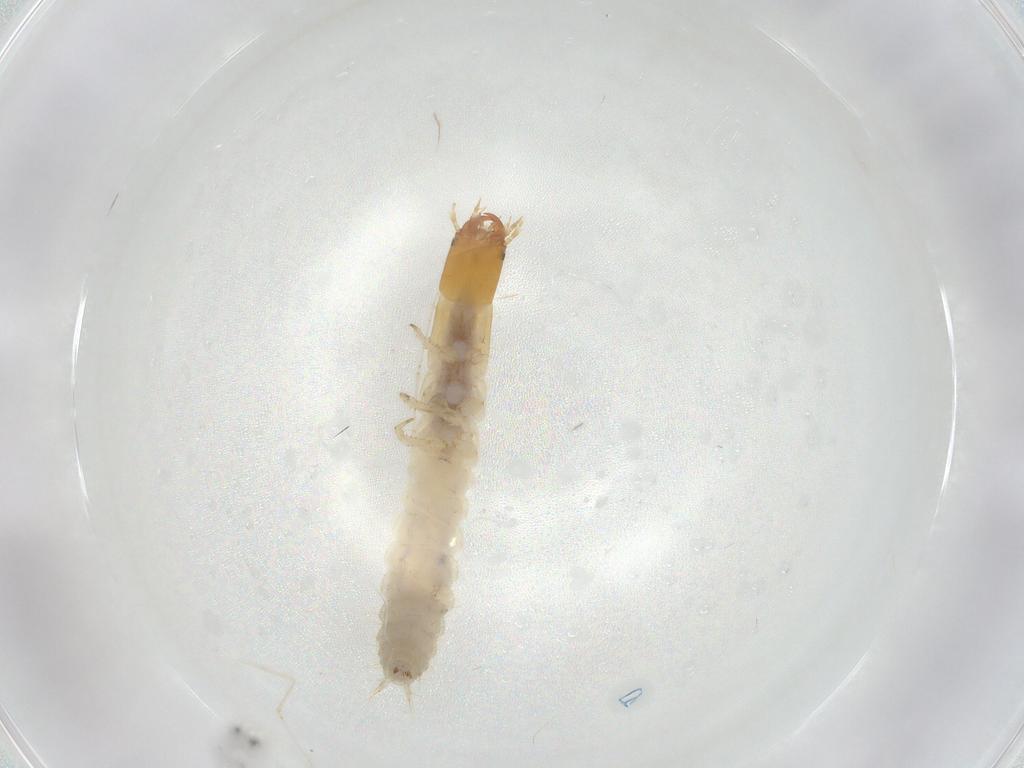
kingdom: Animalia
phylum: Arthropoda
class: Insecta
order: Coleoptera
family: Carabidae
